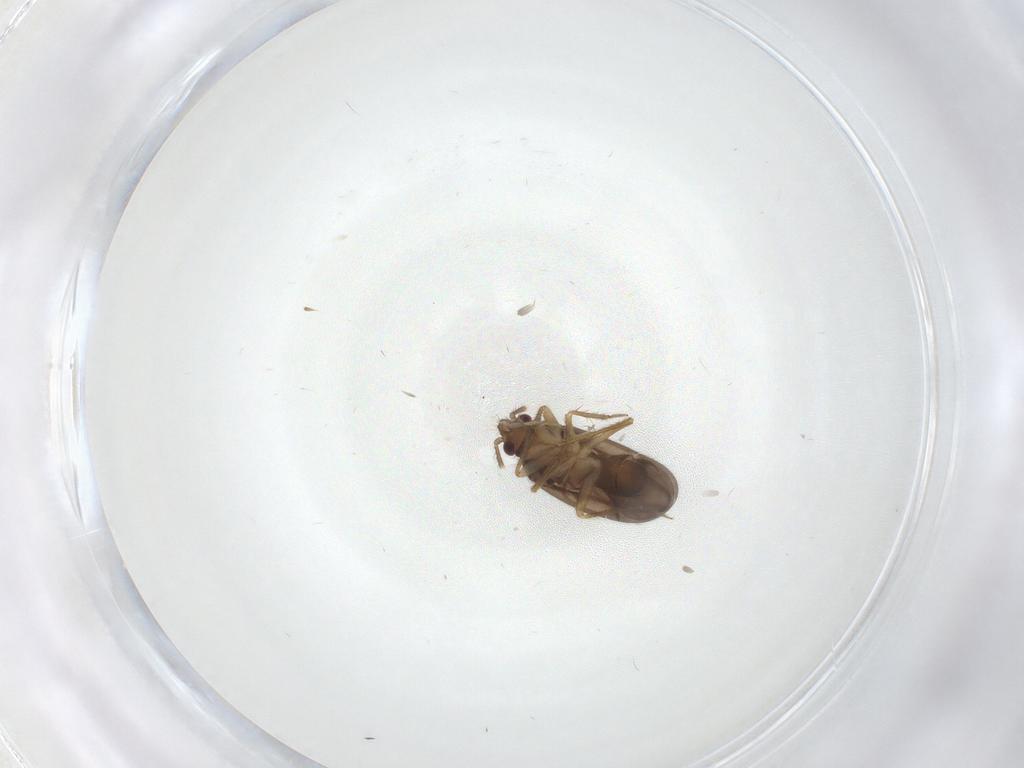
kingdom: Animalia
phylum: Arthropoda
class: Insecta
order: Hemiptera
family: Ceratocombidae
